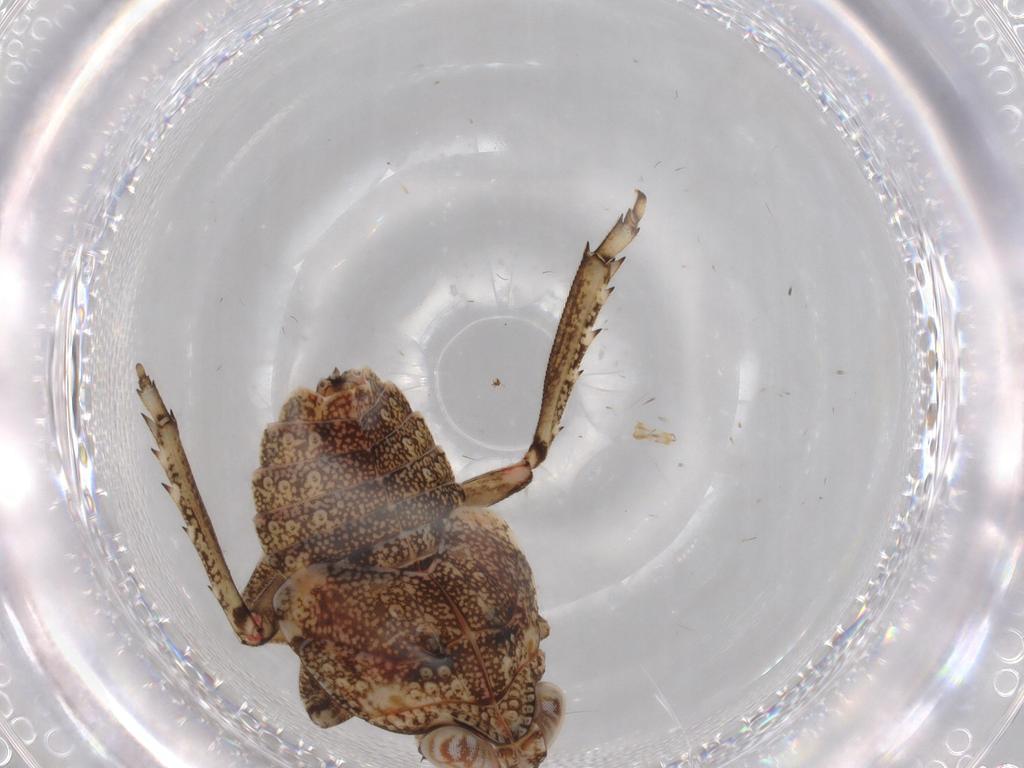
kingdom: Animalia
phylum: Arthropoda
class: Insecta
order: Hemiptera
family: Issidae
